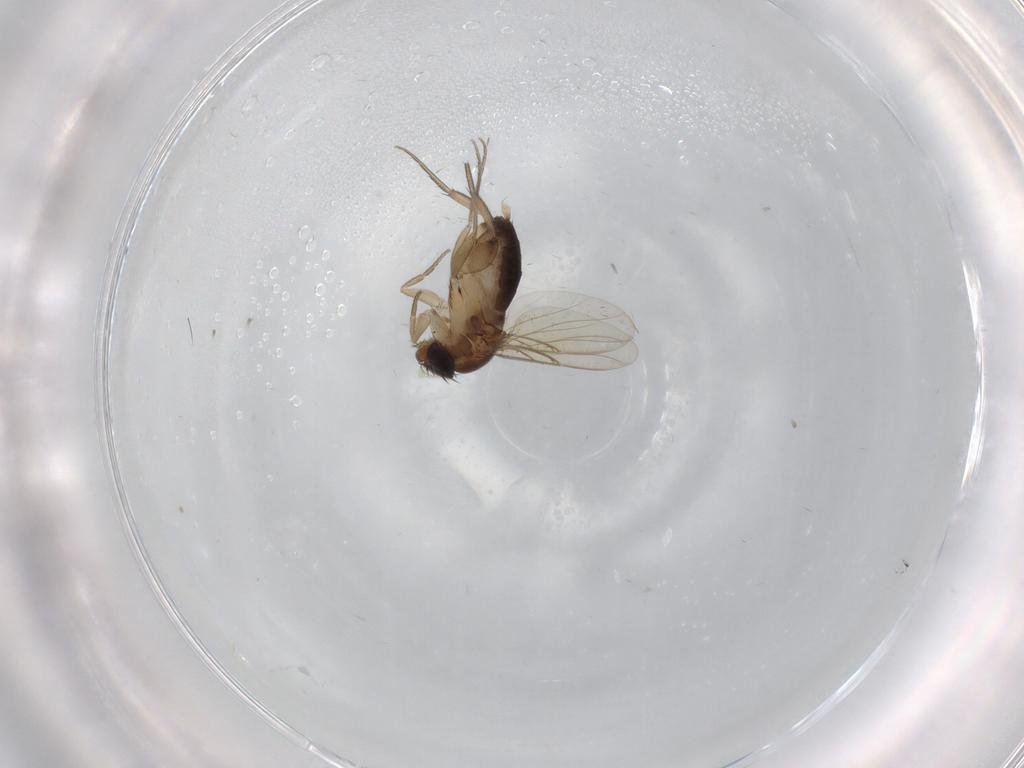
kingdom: Animalia
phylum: Arthropoda
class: Insecta
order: Diptera
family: Phoridae
